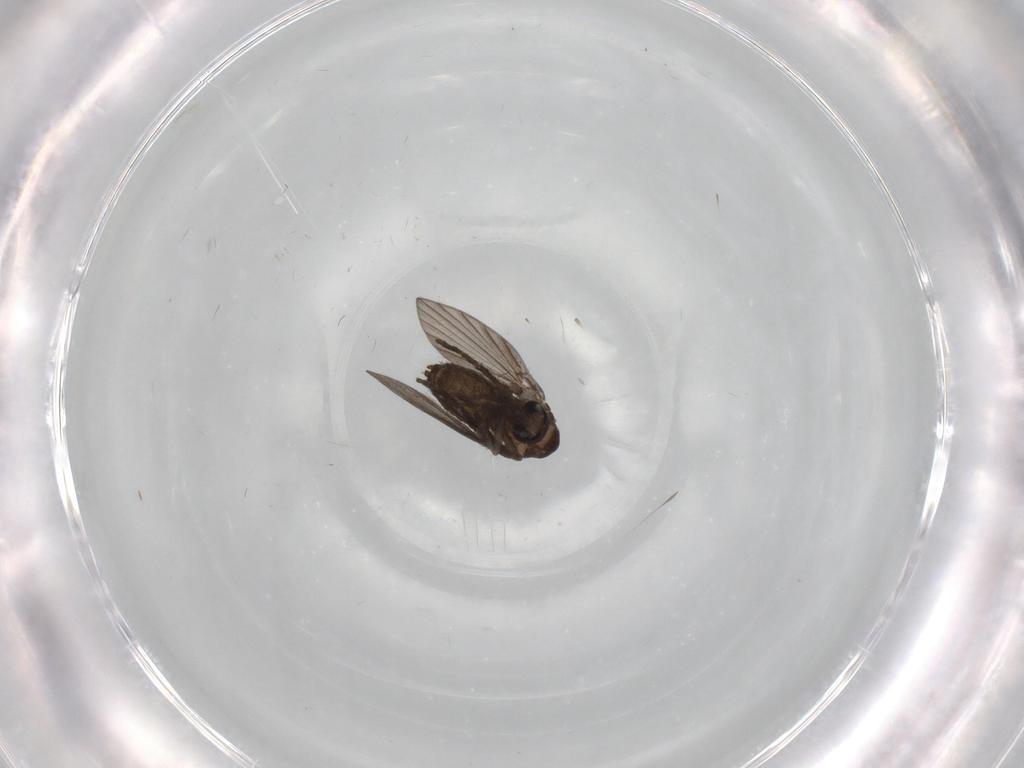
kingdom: Animalia
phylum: Arthropoda
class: Insecta
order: Diptera
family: Psychodidae
